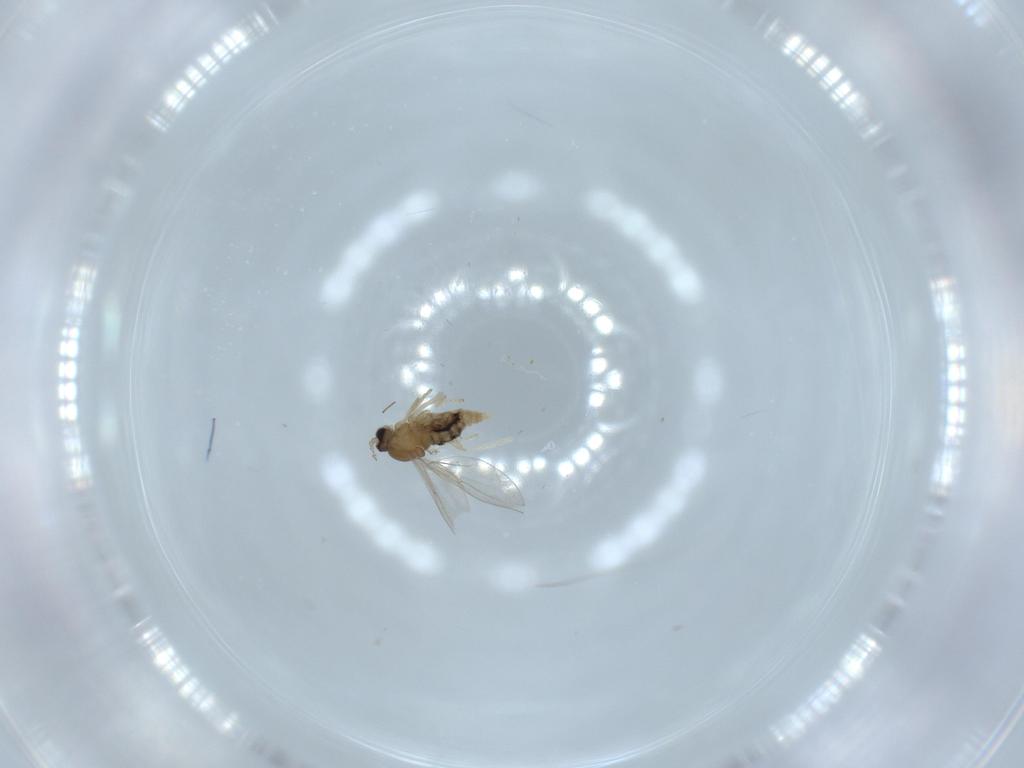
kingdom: Animalia
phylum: Arthropoda
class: Insecta
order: Diptera
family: Cecidomyiidae
